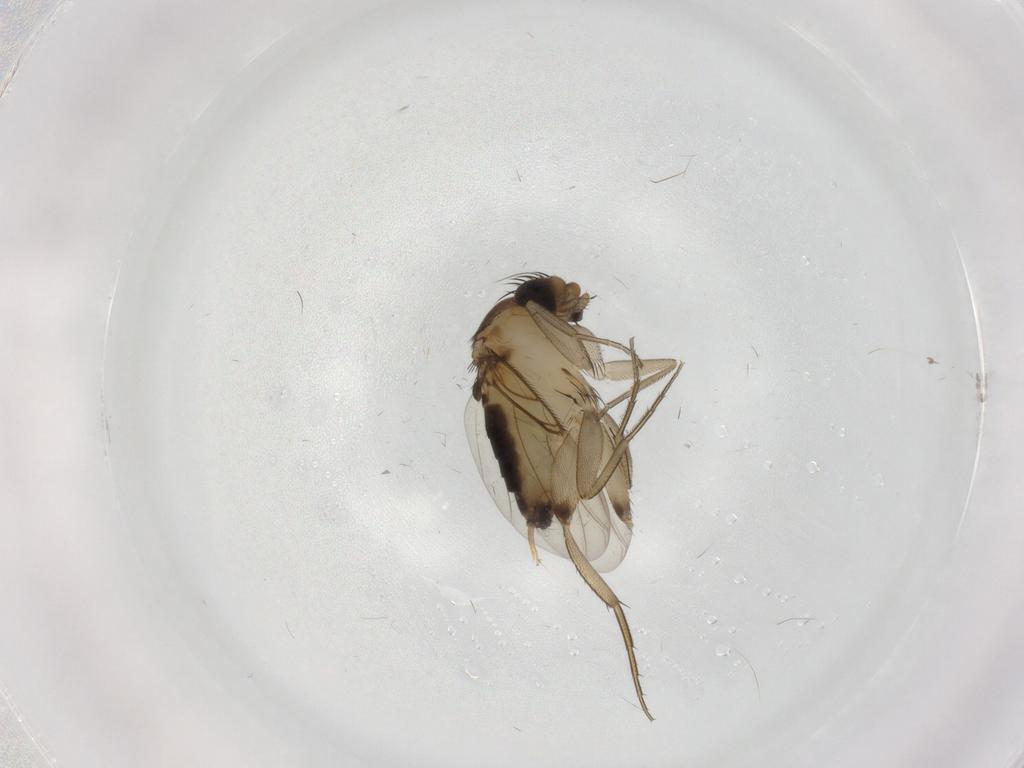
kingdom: Animalia
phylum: Arthropoda
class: Insecta
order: Diptera
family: Phoridae
